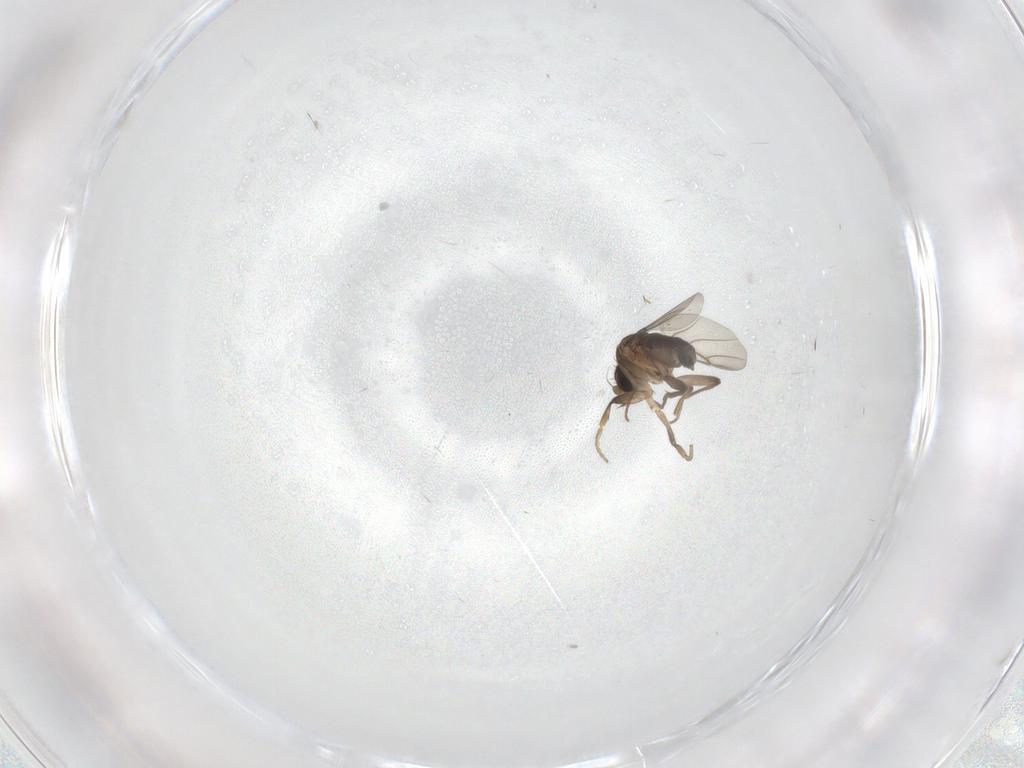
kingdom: Animalia
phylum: Arthropoda
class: Insecta
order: Diptera
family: Phoridae
